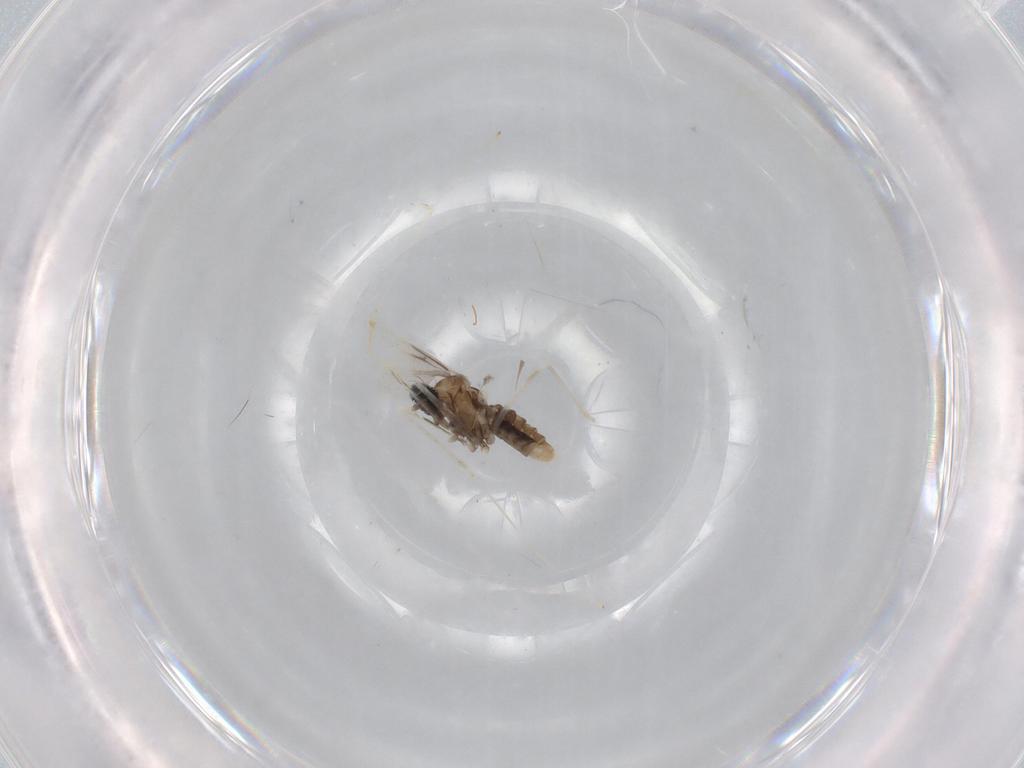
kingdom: Animalia
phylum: Arthropoda
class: Insecta
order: Diptera
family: Cecidomyiidae
